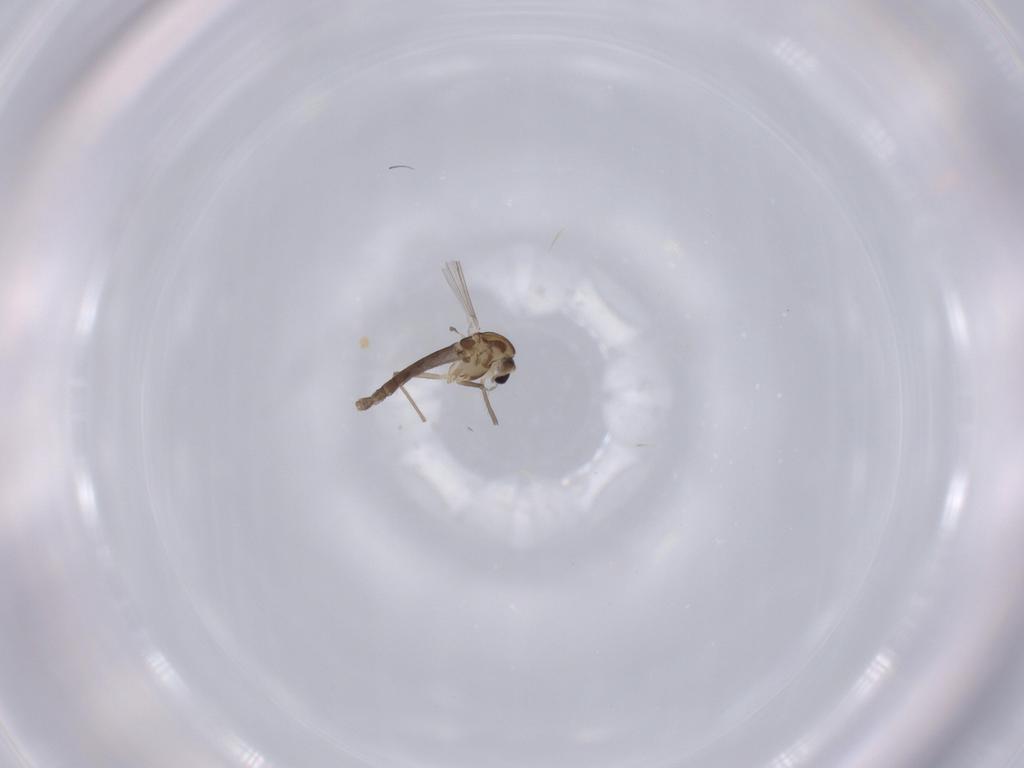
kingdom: Animalia
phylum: Arthropoda
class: Insecta
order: Diptera
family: Chironomidae
